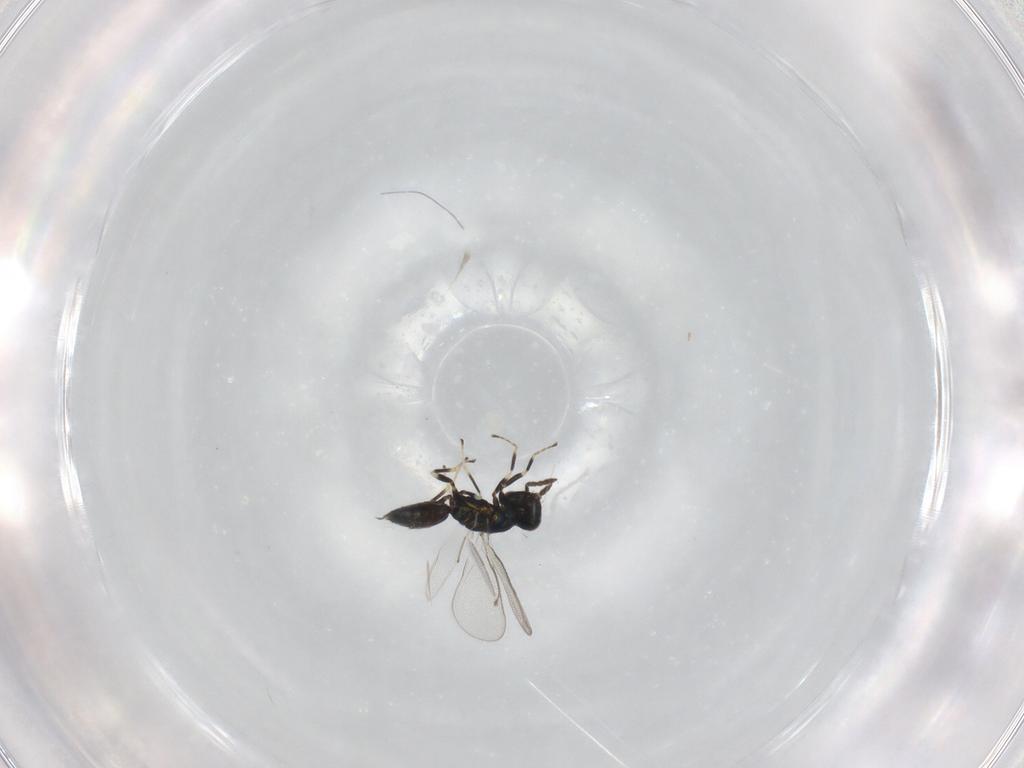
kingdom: Animalia
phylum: Arthropoda
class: Insecta
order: Hymenoptera
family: Eulophidae
